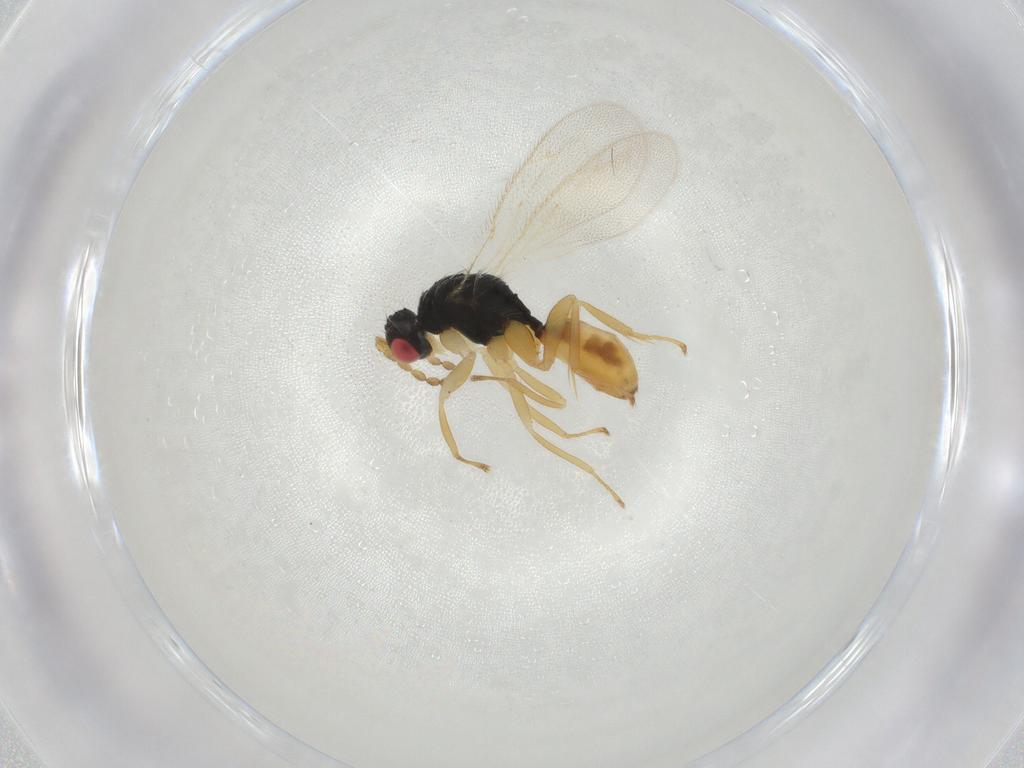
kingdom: Animalia
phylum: Arthropoda
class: Insecta
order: Hymenoptera
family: Eulophidae
